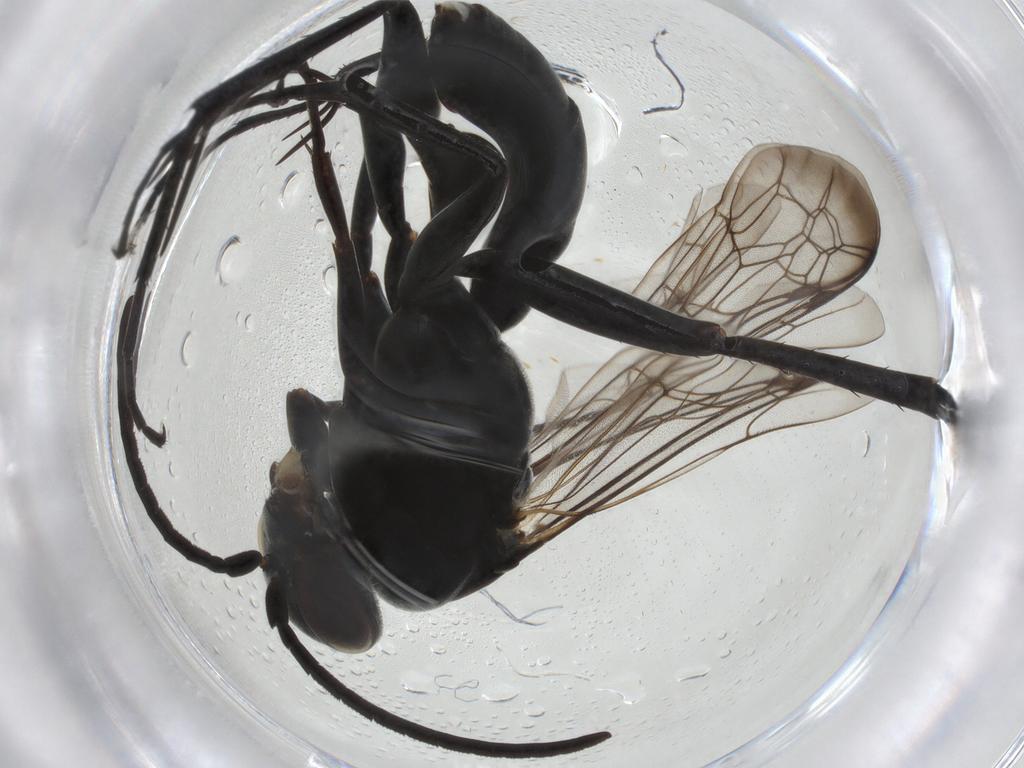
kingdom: Animalia
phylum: Arthropoda
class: Insecta
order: Hymenoptera
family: Pompilidae
